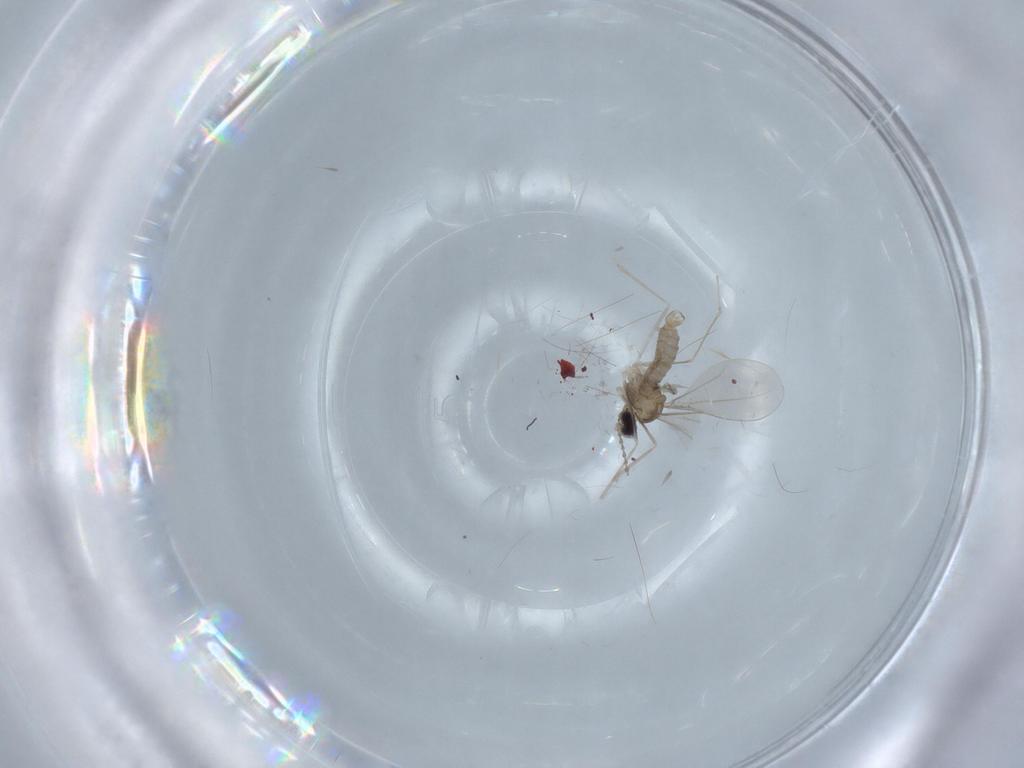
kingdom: Animalia
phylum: Arthropoda
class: Insecta
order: Diptera
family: Cecidomyiidae
